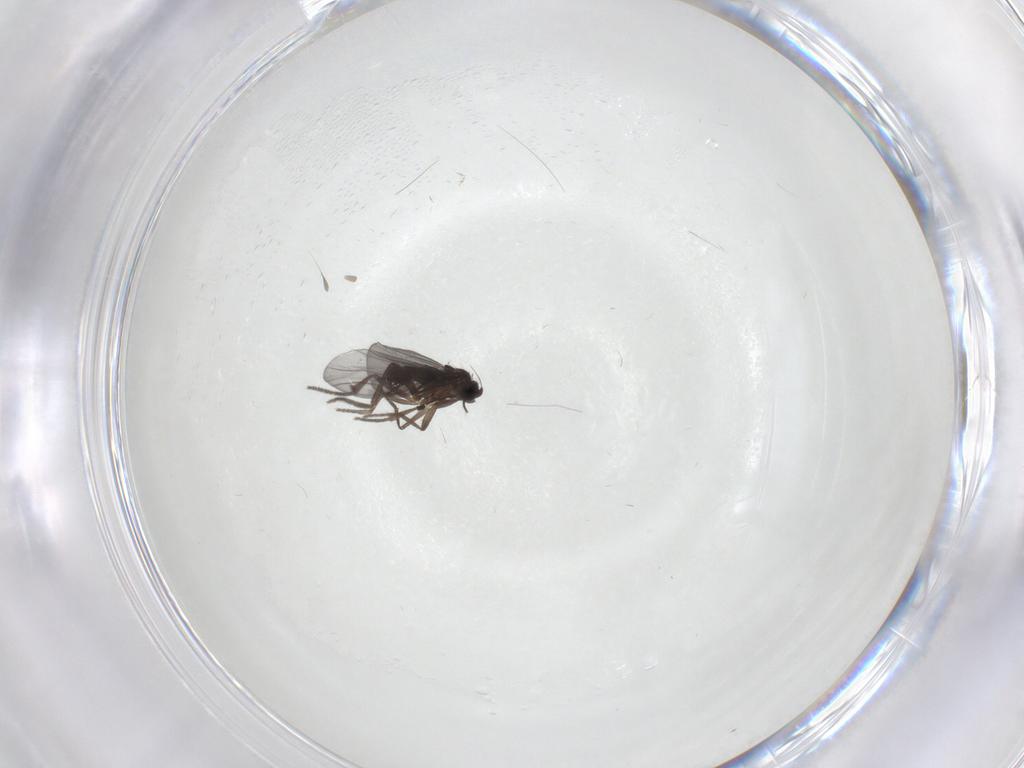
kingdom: Animalia
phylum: Arthropoda
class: Insecta
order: Diptera
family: Phoridae
